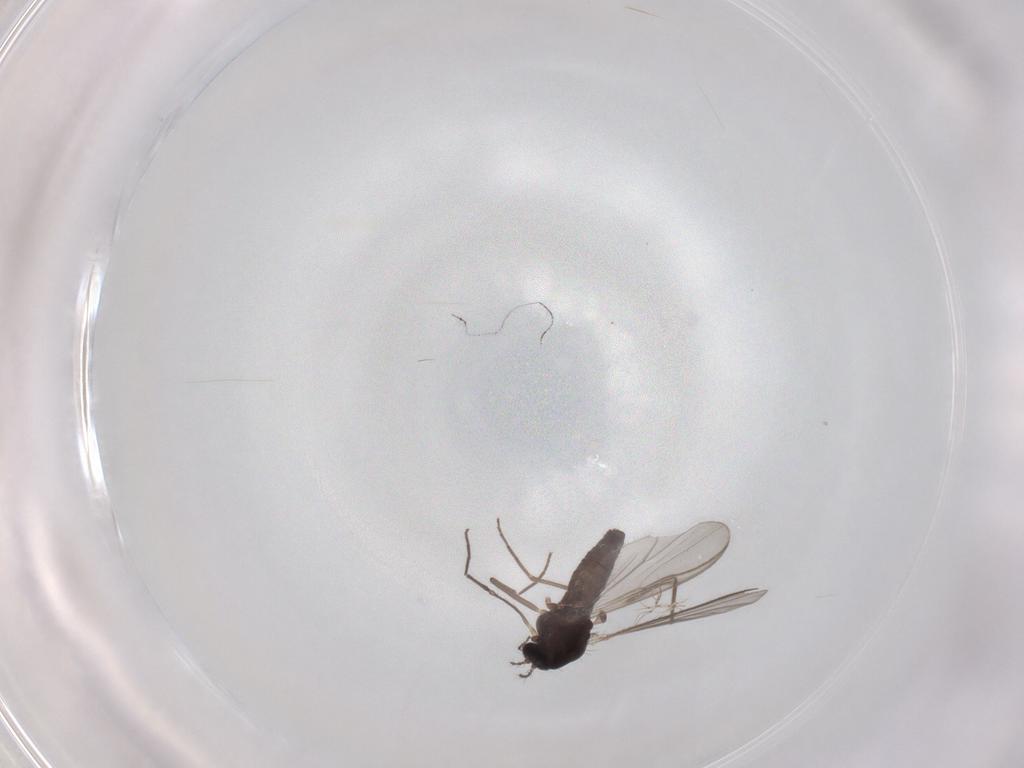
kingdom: Animalia
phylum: Arthropoda
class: Insecta
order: Diptera
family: Chironomidae
